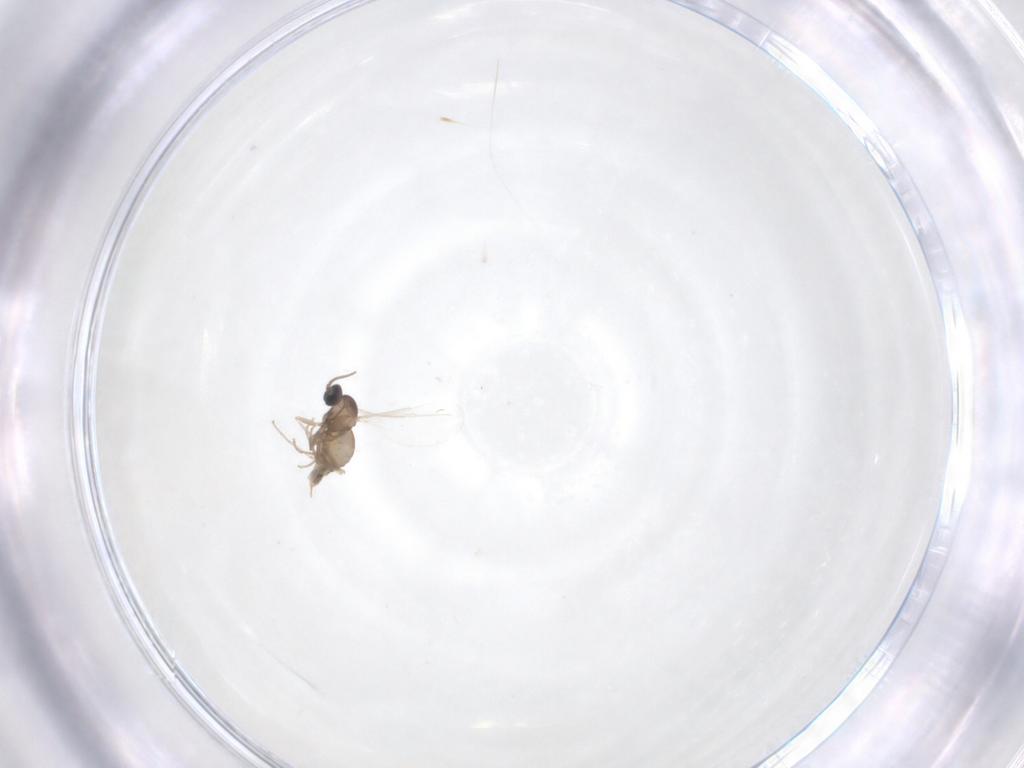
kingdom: Animalia
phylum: Arthropoda
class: Insecta
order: Diptera
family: Cecidomyiidae
